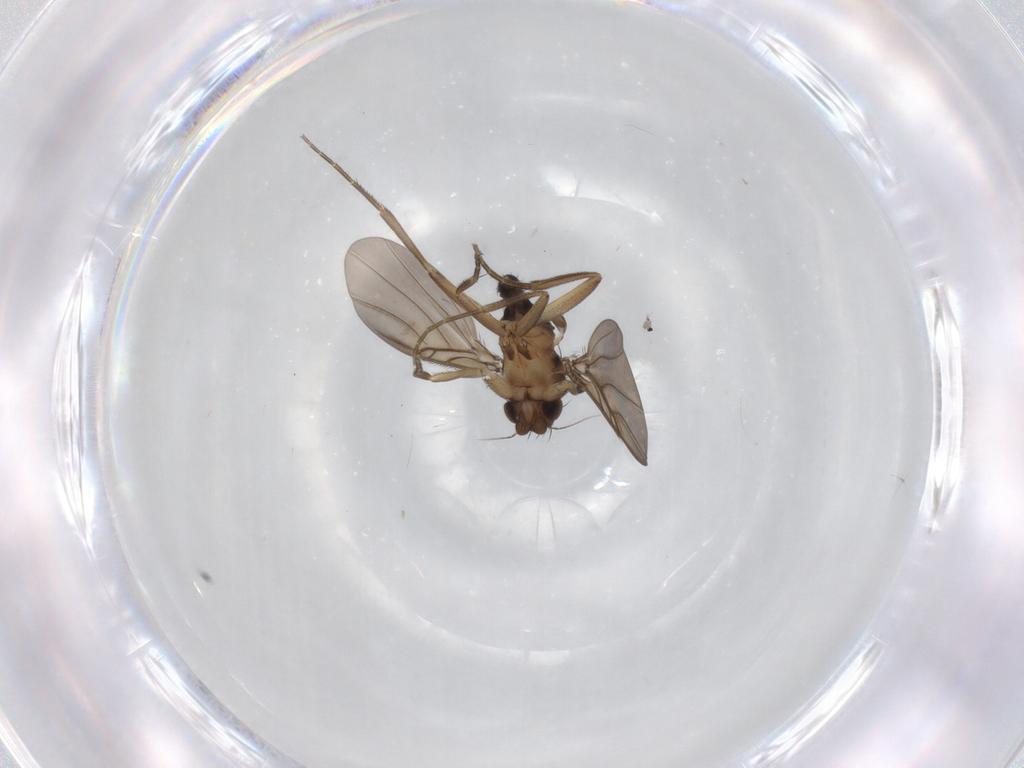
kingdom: Animalia
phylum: Arthropoda
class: Insecta
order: Diptera
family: Phoridae
